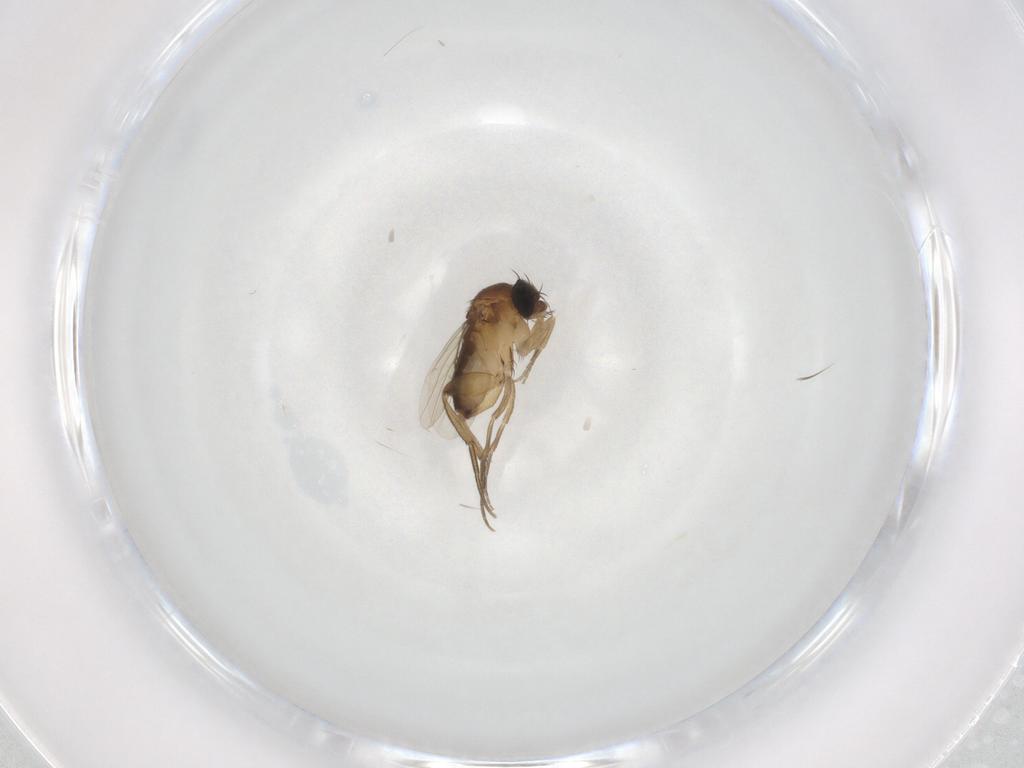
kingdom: Animalia
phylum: Arthropoda
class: Insecta
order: Diptera
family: Phoridae
